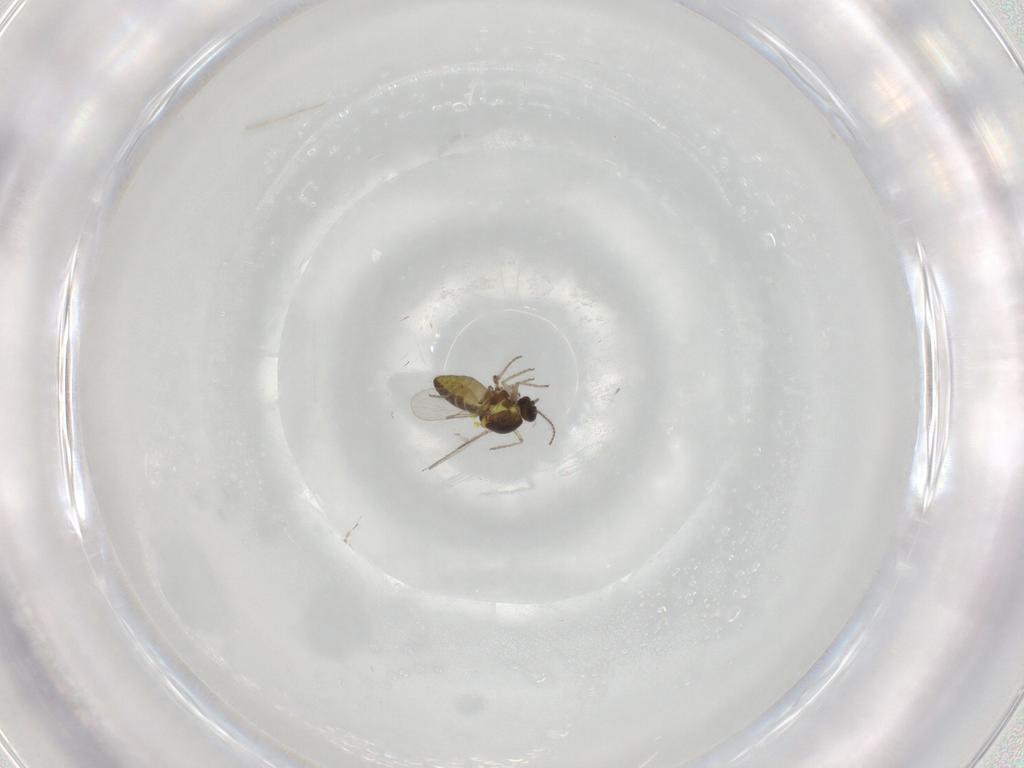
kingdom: Animalia
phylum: Arthropoda
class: Insecta
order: Diptera
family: Ceratopogonidae
